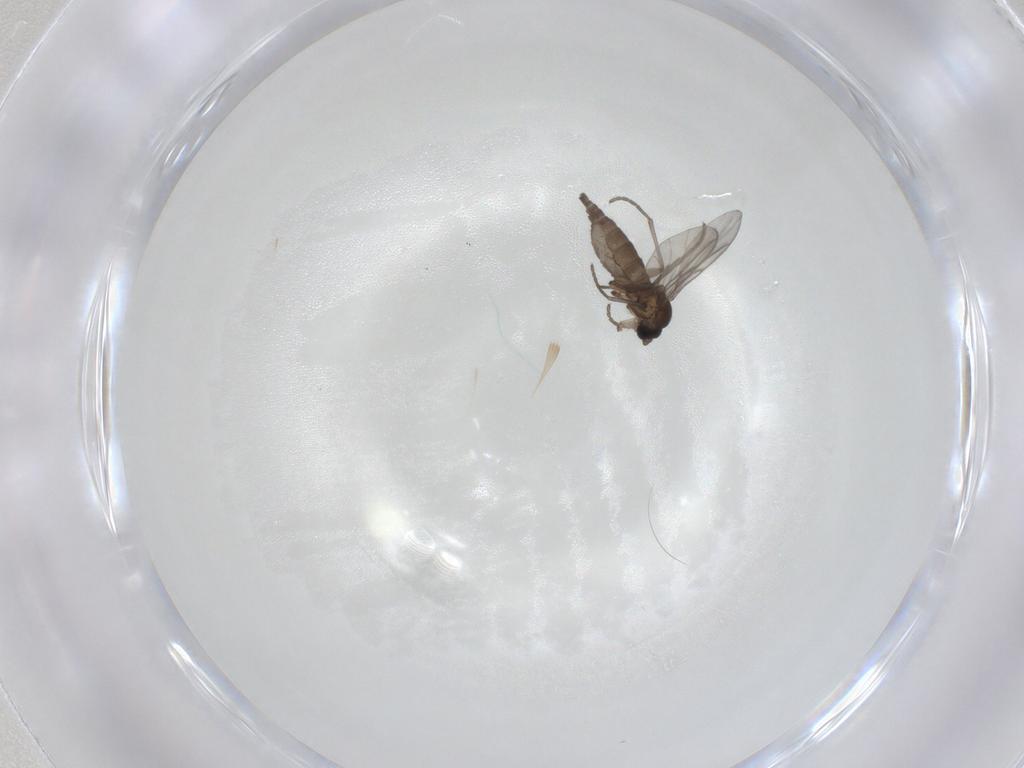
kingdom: Animalia
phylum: Arthropoda
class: Insecta
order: Diptera
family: Sciaridae
